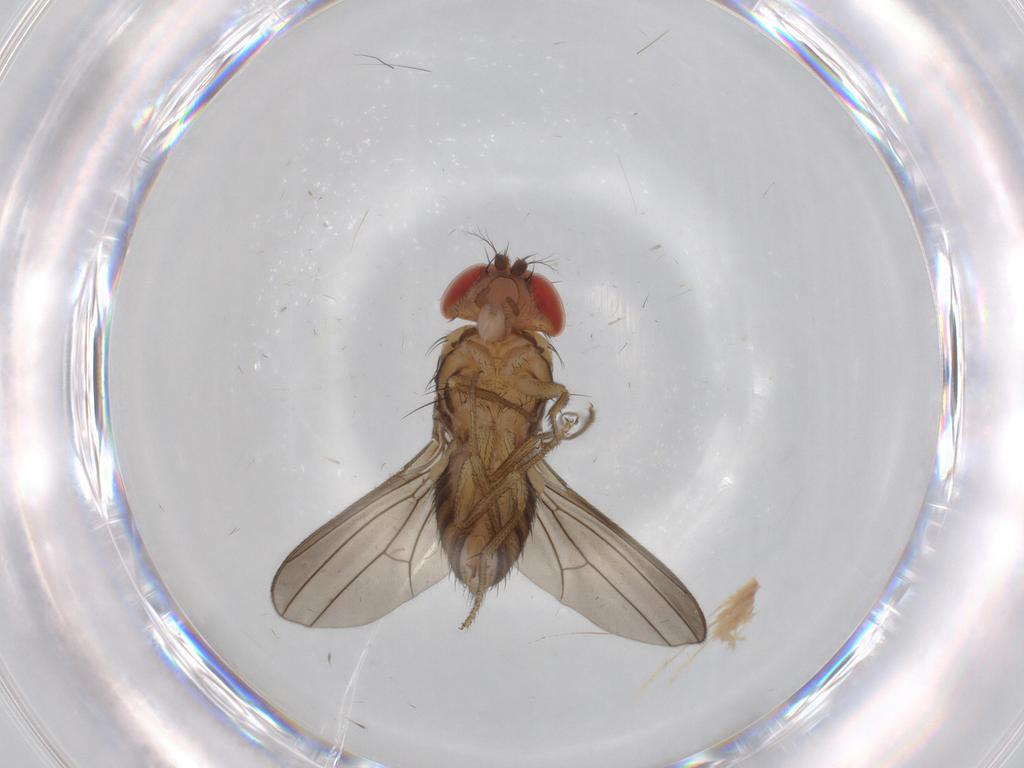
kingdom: Animalia
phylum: Arthropoda
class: Insecta
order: Diptera
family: Drosophilidae
